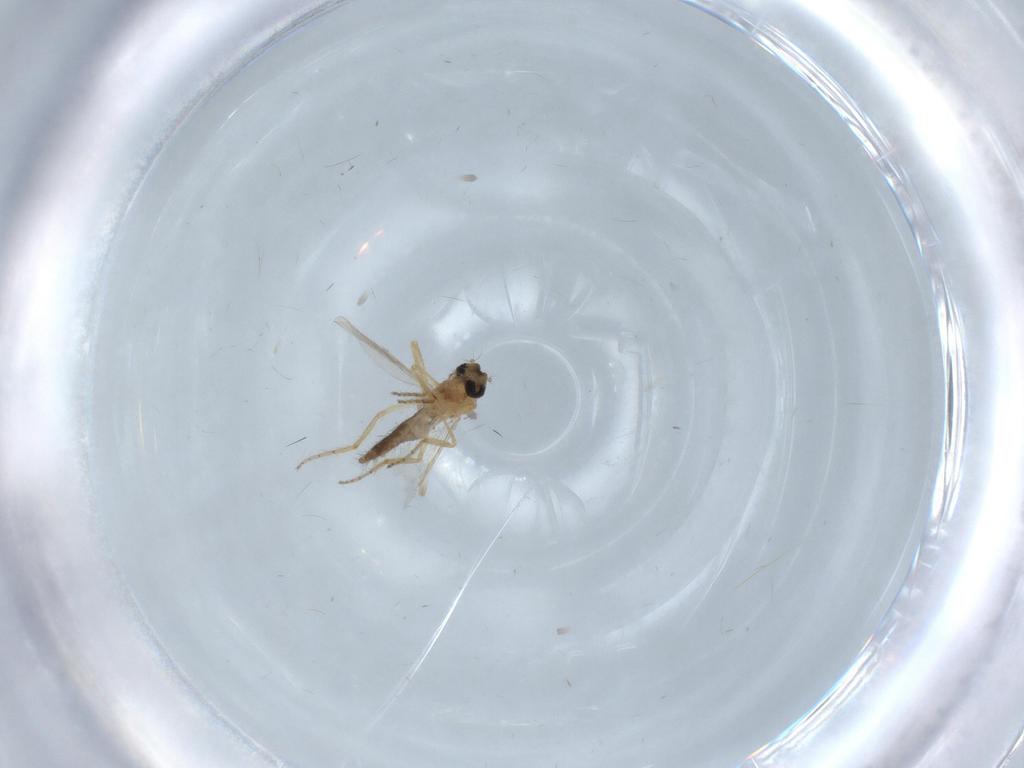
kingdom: Animalia
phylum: Arthropoda
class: Insecta
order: Diptera
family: Ceratopogonidae
